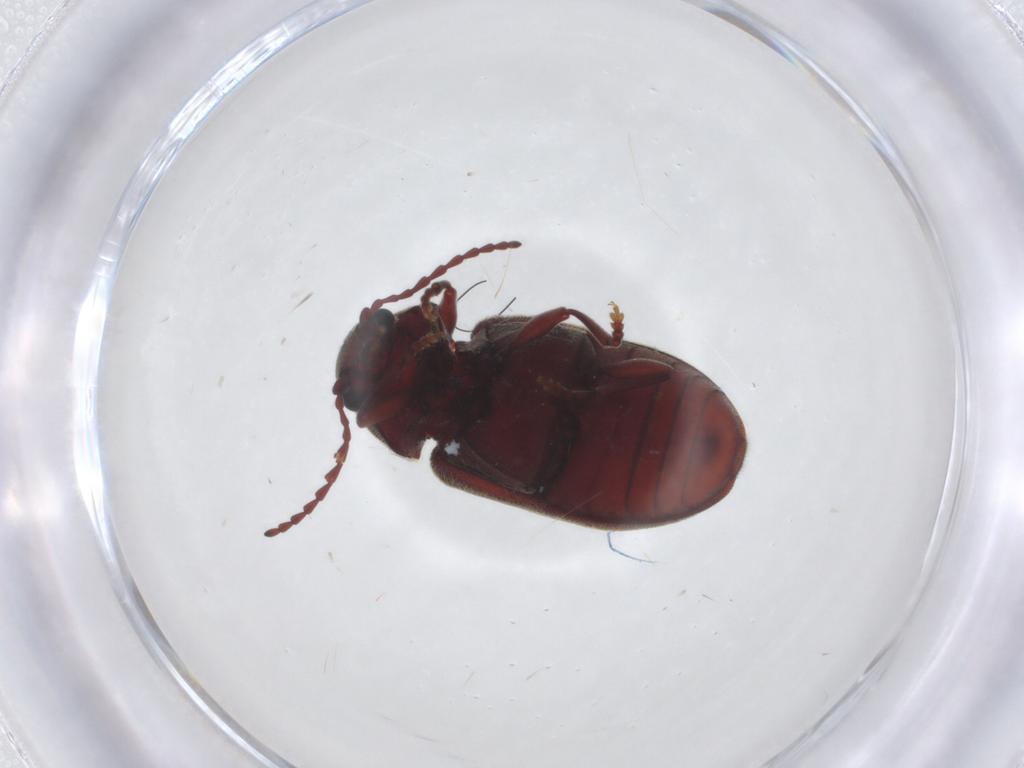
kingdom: Animalia
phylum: Arthropoda
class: Insecta
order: Coleoptera
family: Ptinidae
